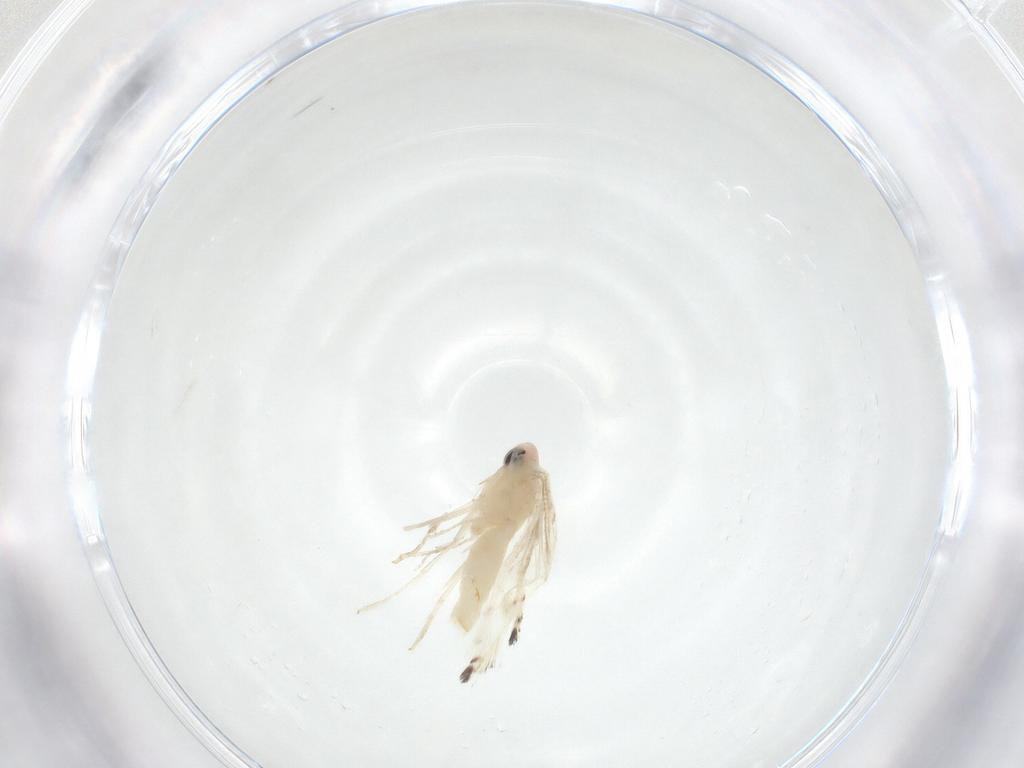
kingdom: Animalia
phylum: Arthropoda
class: Insecta
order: Lepidoptera
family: Gracillariidae
